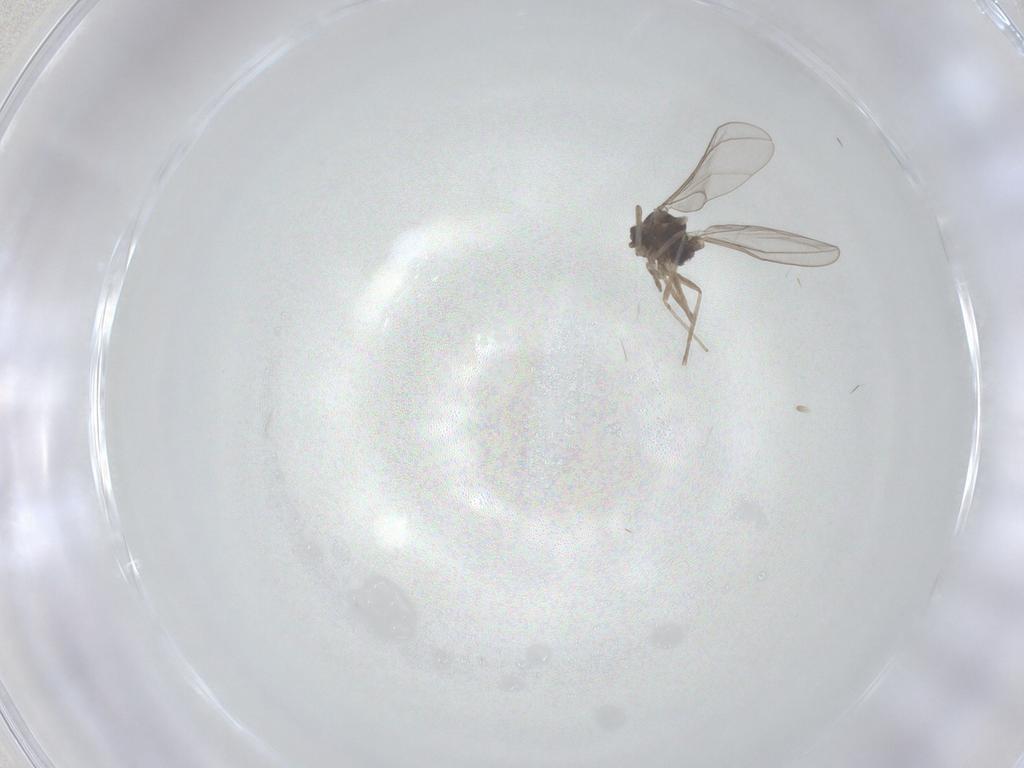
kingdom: Animalia
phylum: Arthropoda
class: Insecta
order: Diptera
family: Cecidomyiidae
